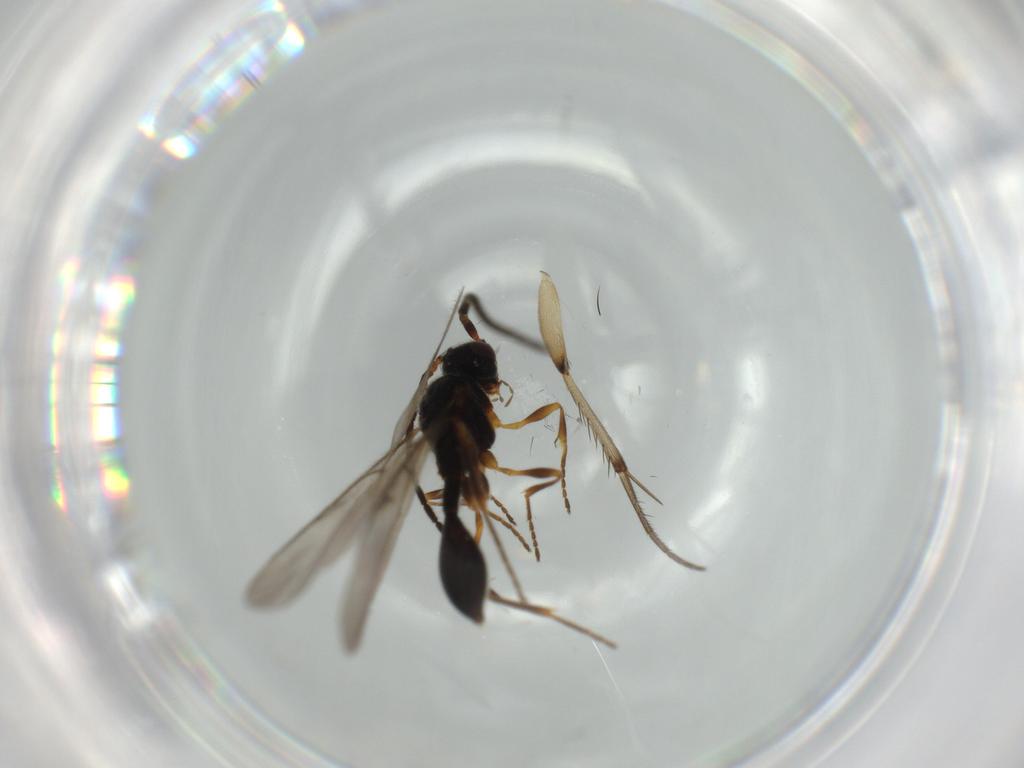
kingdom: Animalia
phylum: Arthropoda
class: Insecta
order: Hymenoptera
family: Diapriidae
